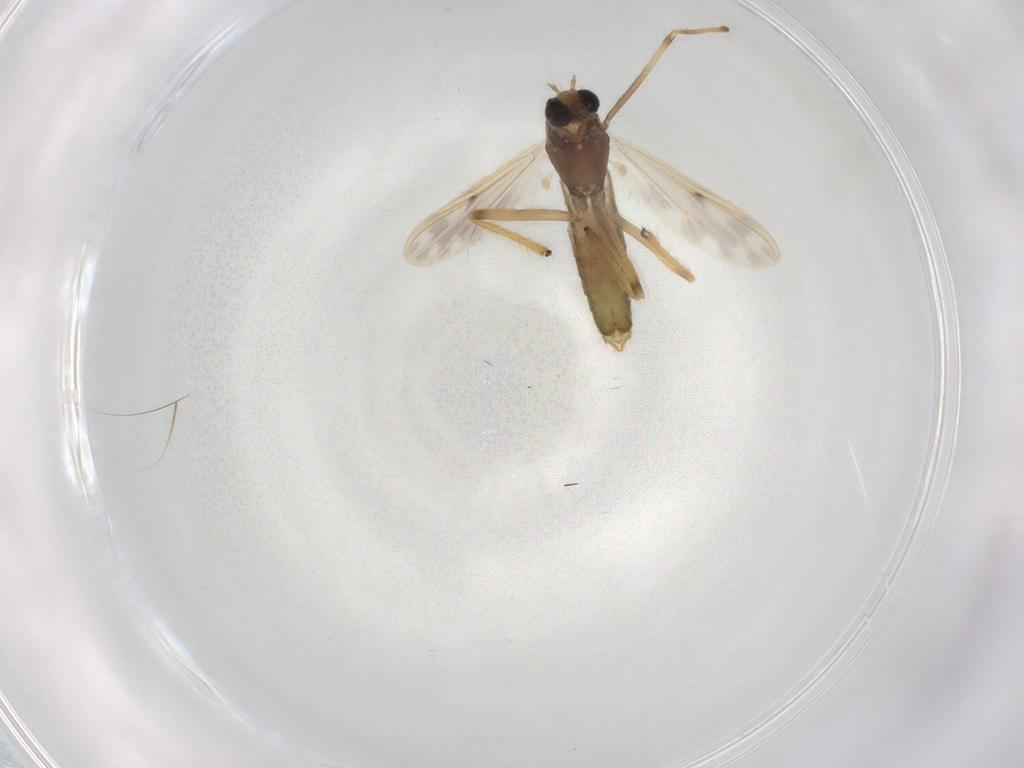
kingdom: Animalia
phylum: Arthropoda
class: Insecta
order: Diptera
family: Chironomidae
